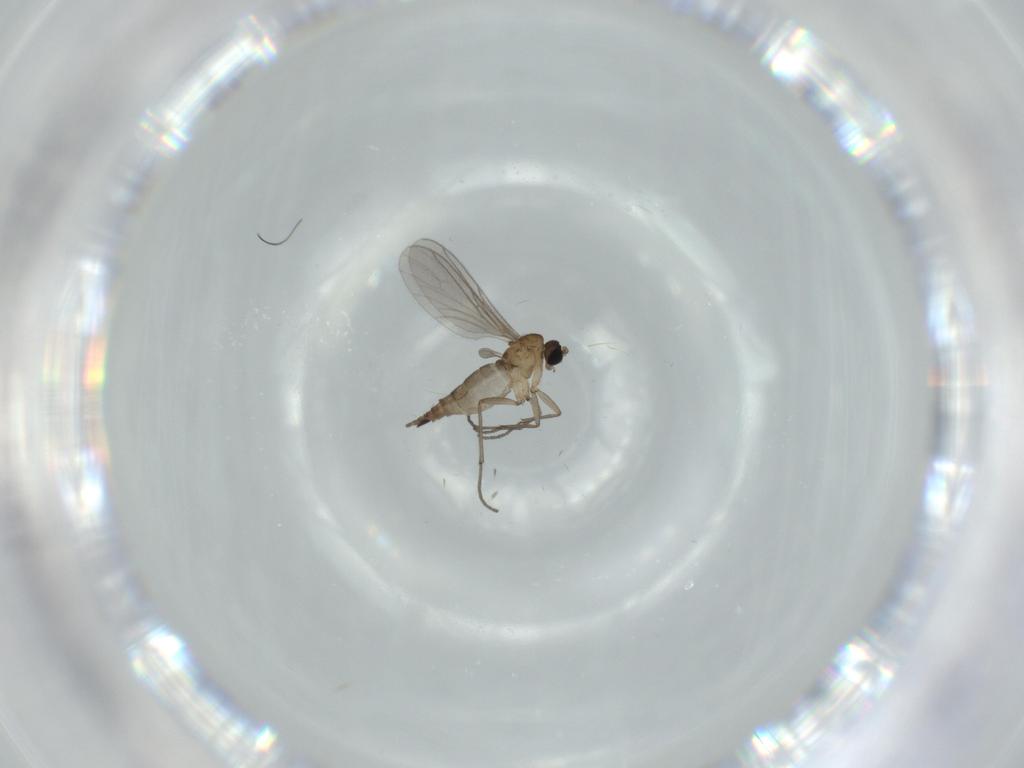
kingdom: Animalia
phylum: Arthropoda
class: Insecta
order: Diptera
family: Sciaridae
